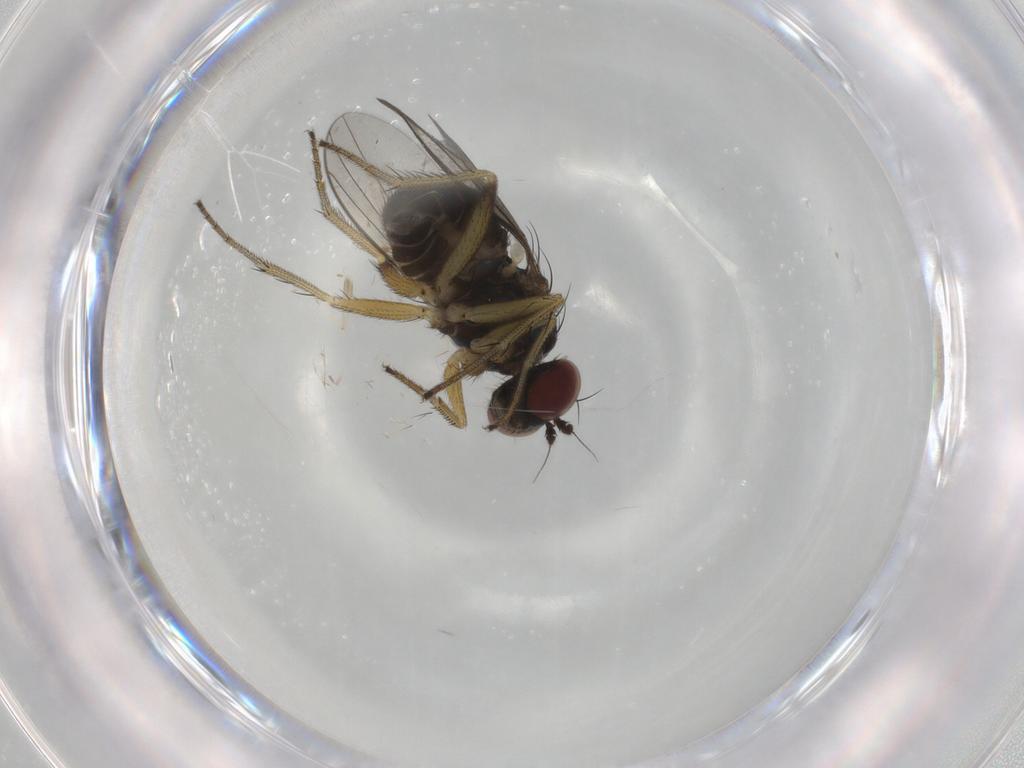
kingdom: Animalia
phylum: Arthropoda
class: Insecta
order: Diptera
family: Dolichopodidae
